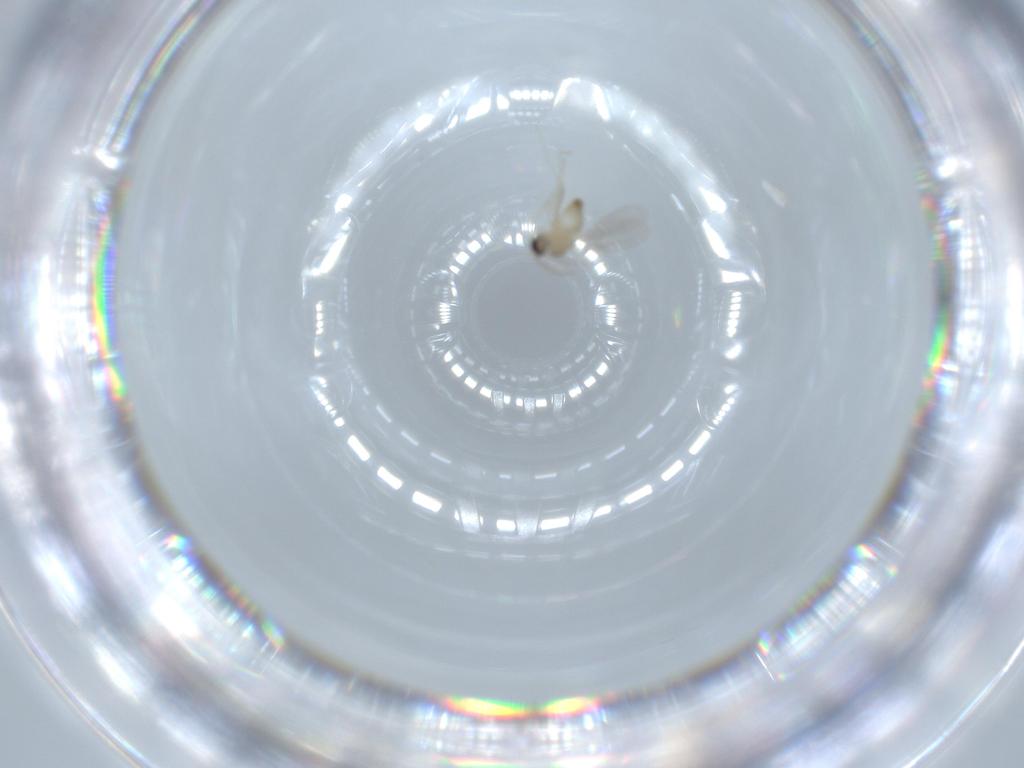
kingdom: Animalia
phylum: Arthropoda
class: Insecta
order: Diptera
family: Cecidomyiidae
